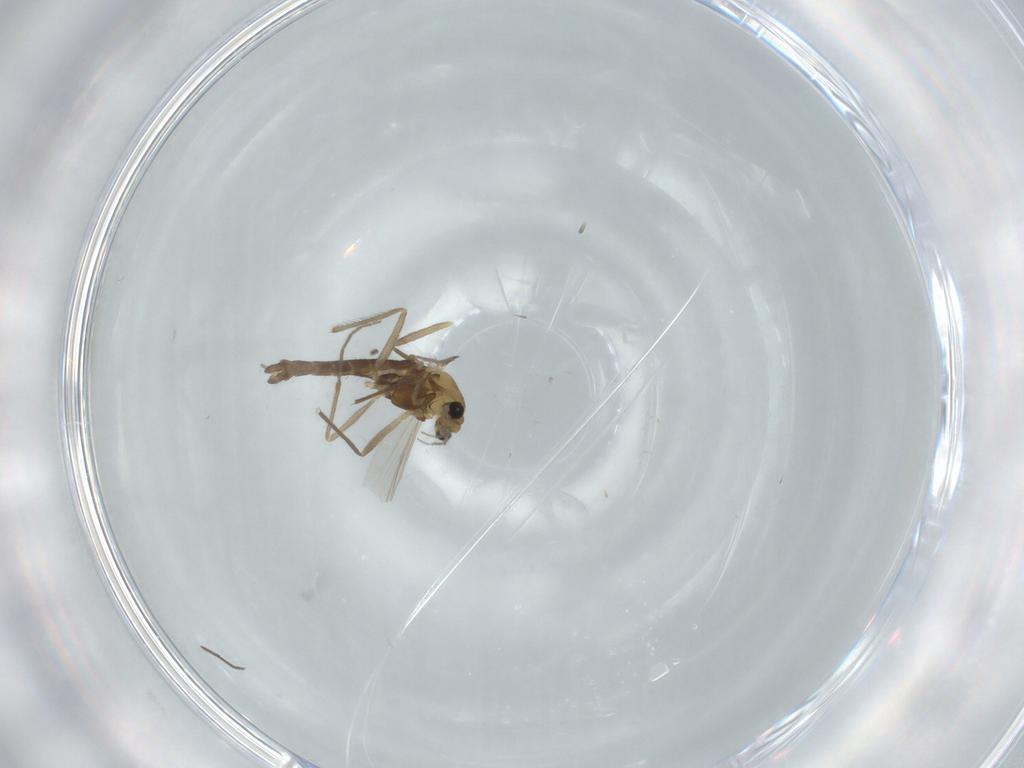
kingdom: Animalia
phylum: Arthropoda
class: Insecta
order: Diptera
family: Chironomidae
